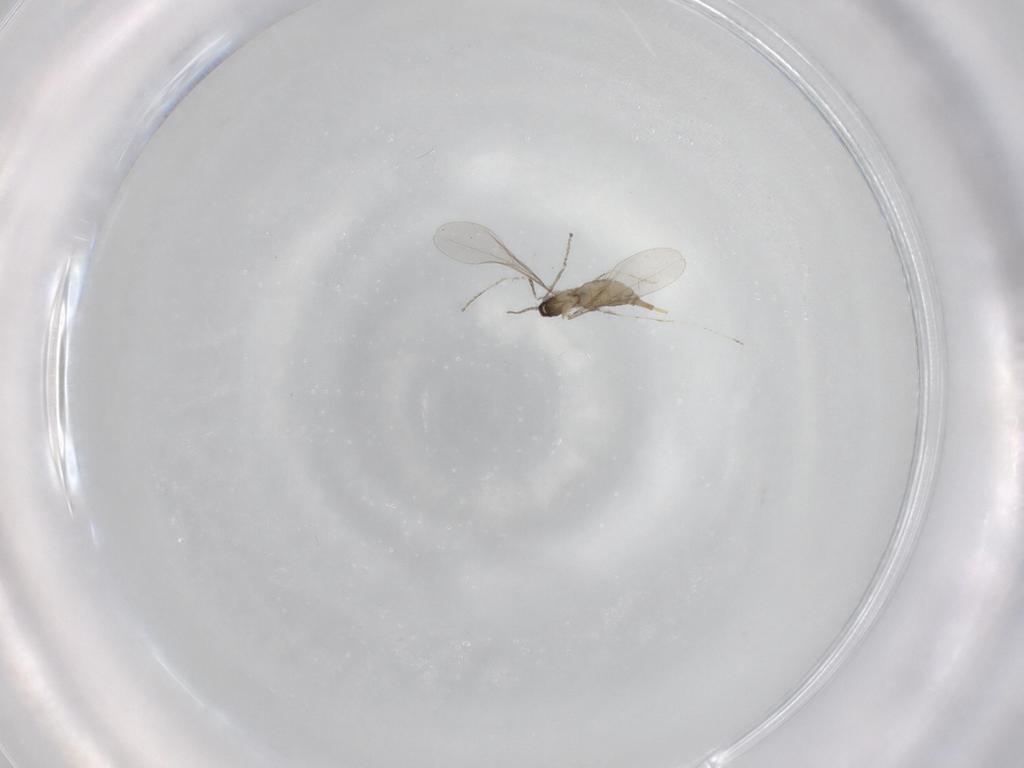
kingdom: Animalia
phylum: Arthropoda
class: Insecta
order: Diptera
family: Cecidomyiidae
